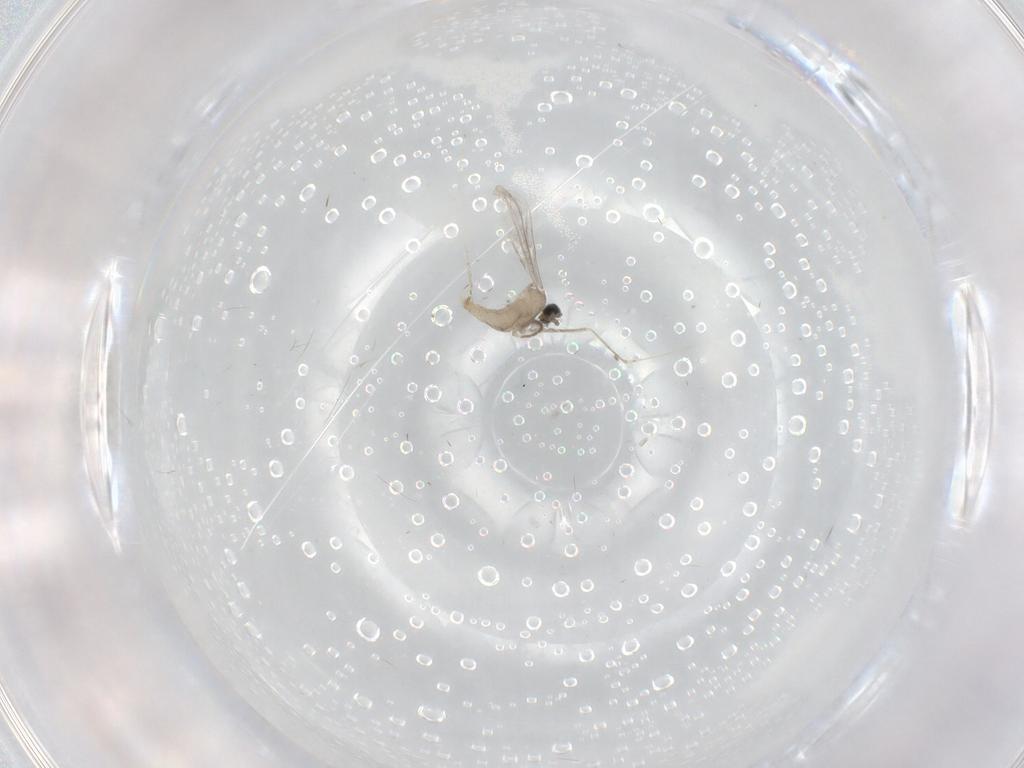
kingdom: Animalia
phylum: Arthropoda
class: Insecta
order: Diptera
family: Ceratopogonidae
